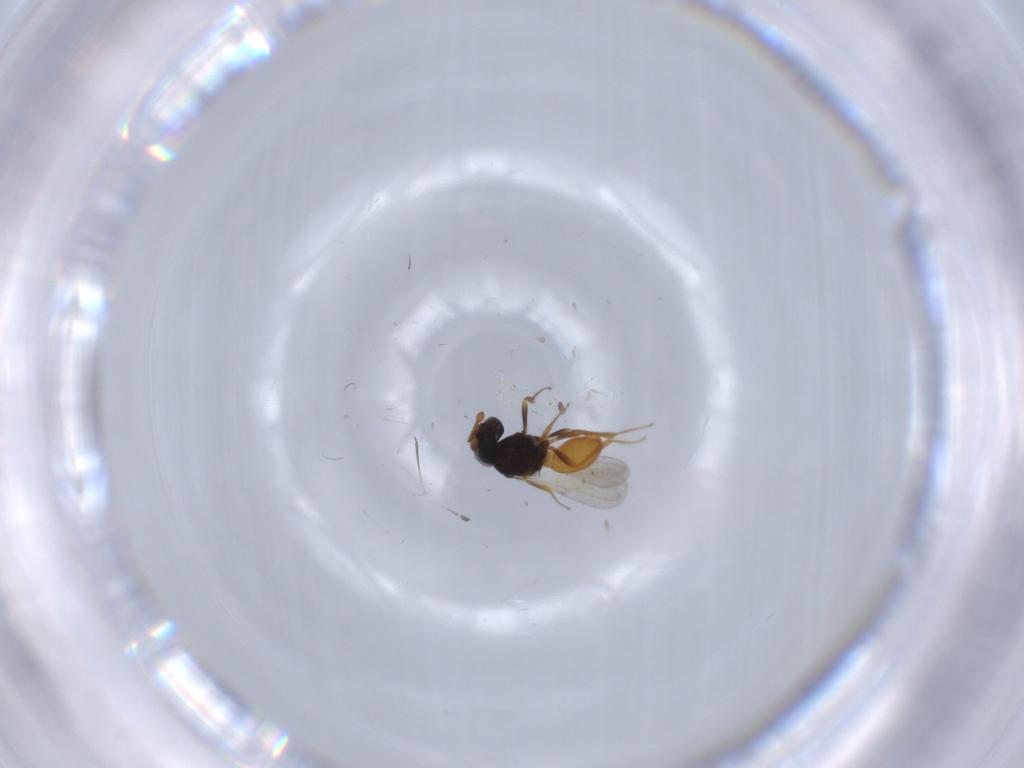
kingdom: Animalia
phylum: Arthropoda
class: Insecta
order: Hymenoptera
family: Scelionidae
